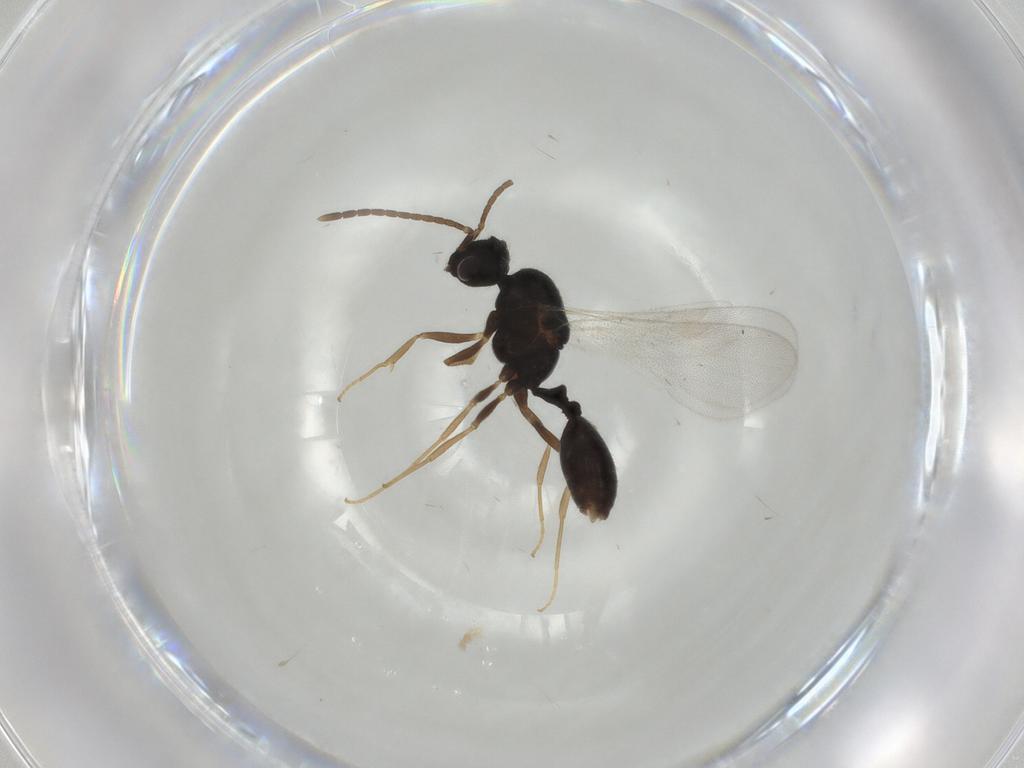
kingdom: Animalia
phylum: Arthropoda
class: Insecta
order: Hymenoptera
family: Formicidae
